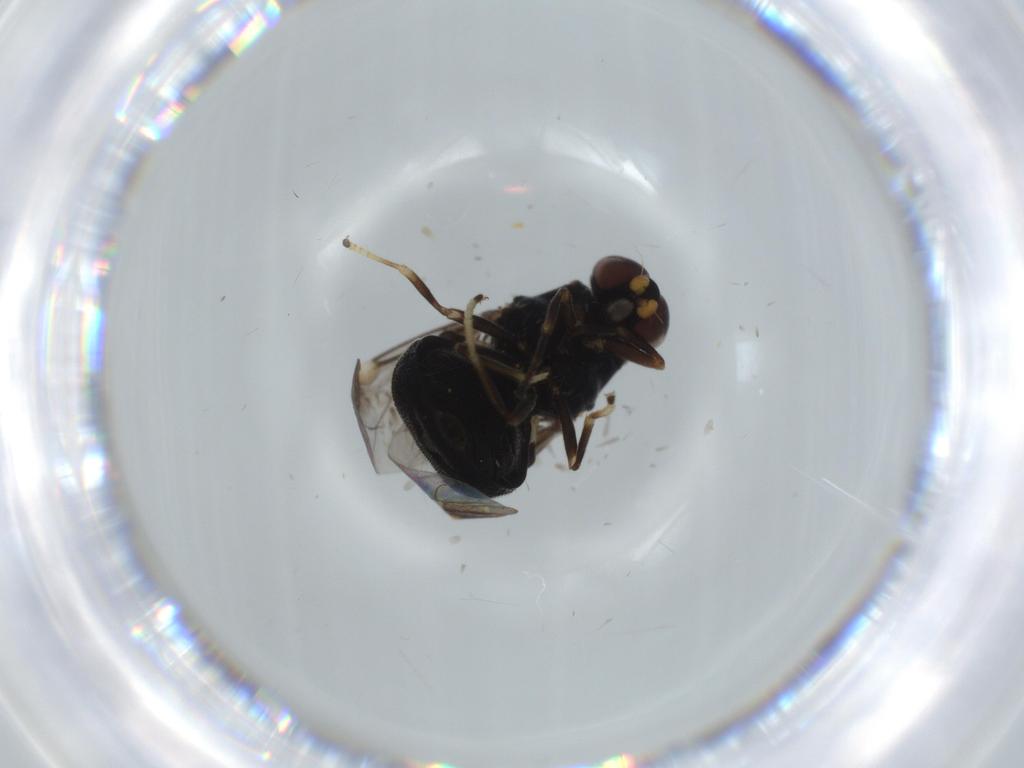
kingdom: Animalia
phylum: Arthropoda
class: Insecta
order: Diptera
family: Stratiomyidae
